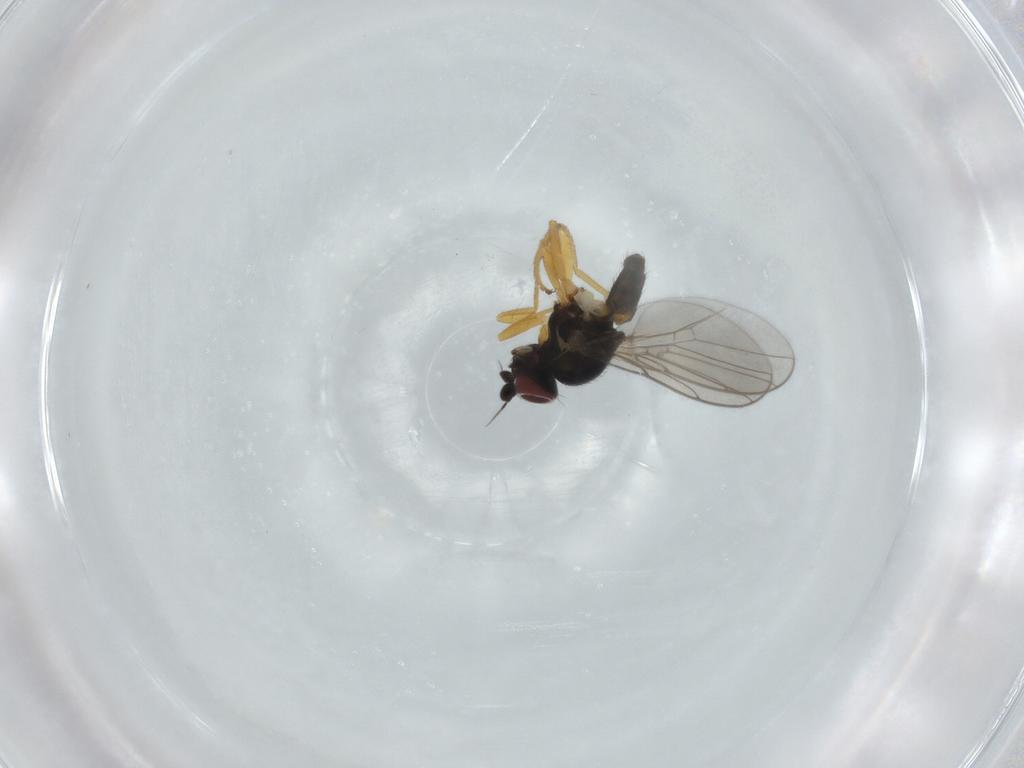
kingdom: Animalia
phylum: Arthropoda
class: Insecta
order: Diptera
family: Chloropidae
